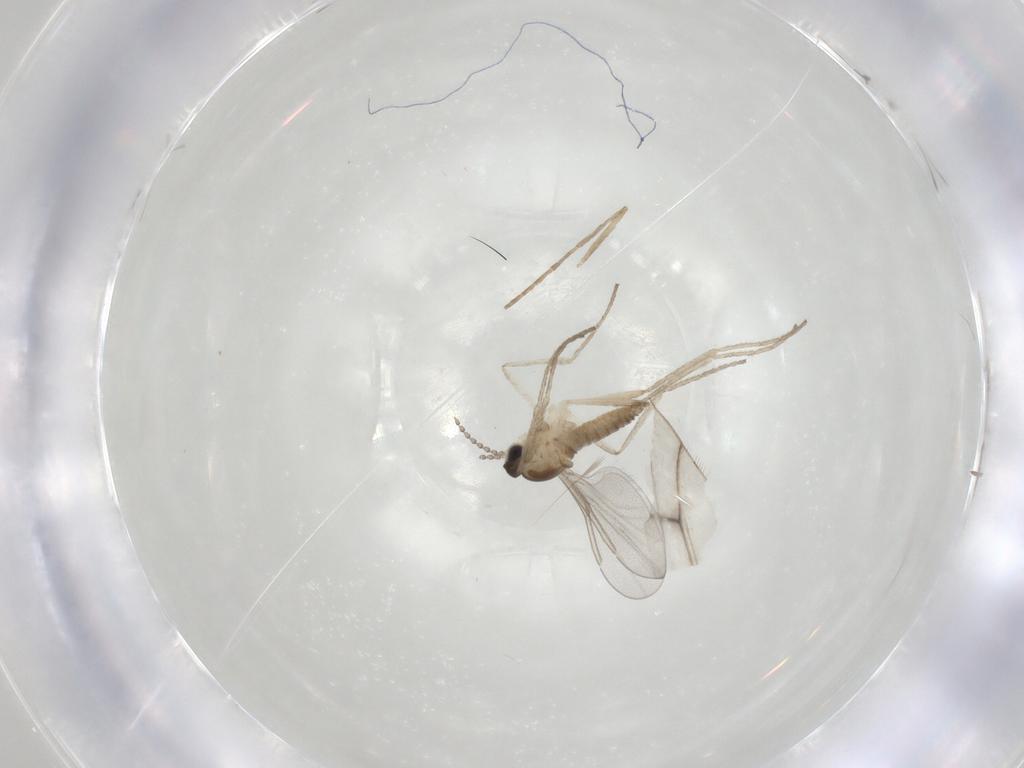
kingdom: Animalia
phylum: Arthropoda
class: Insecta
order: Diptera
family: Cecidomyiidae
